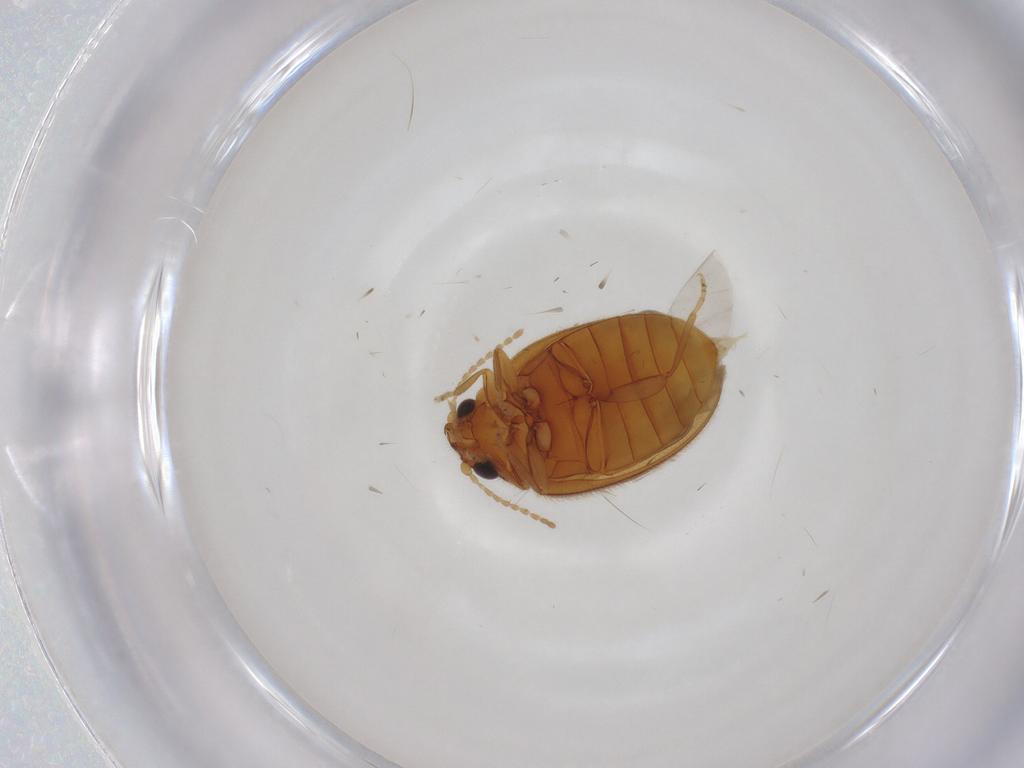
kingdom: Animalia
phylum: Arthropoda
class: Insecta
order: Coleoptera
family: Scirtidae
